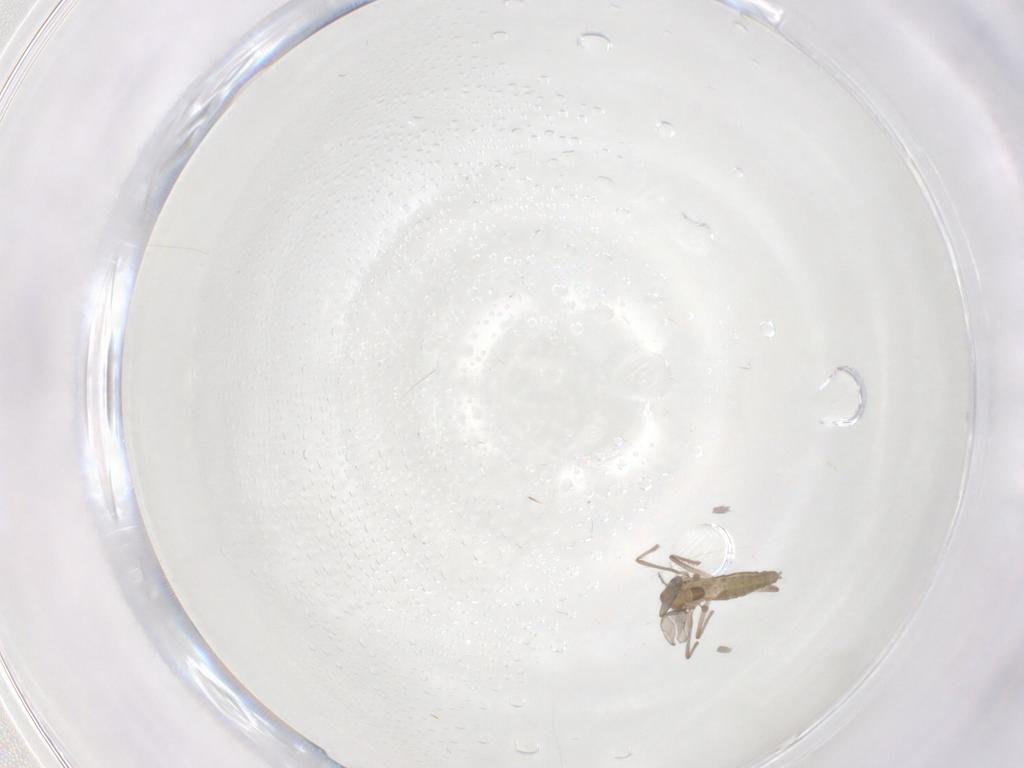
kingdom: Animalia
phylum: Arthropoda
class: Insecta
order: Diptera
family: Chironomidae
